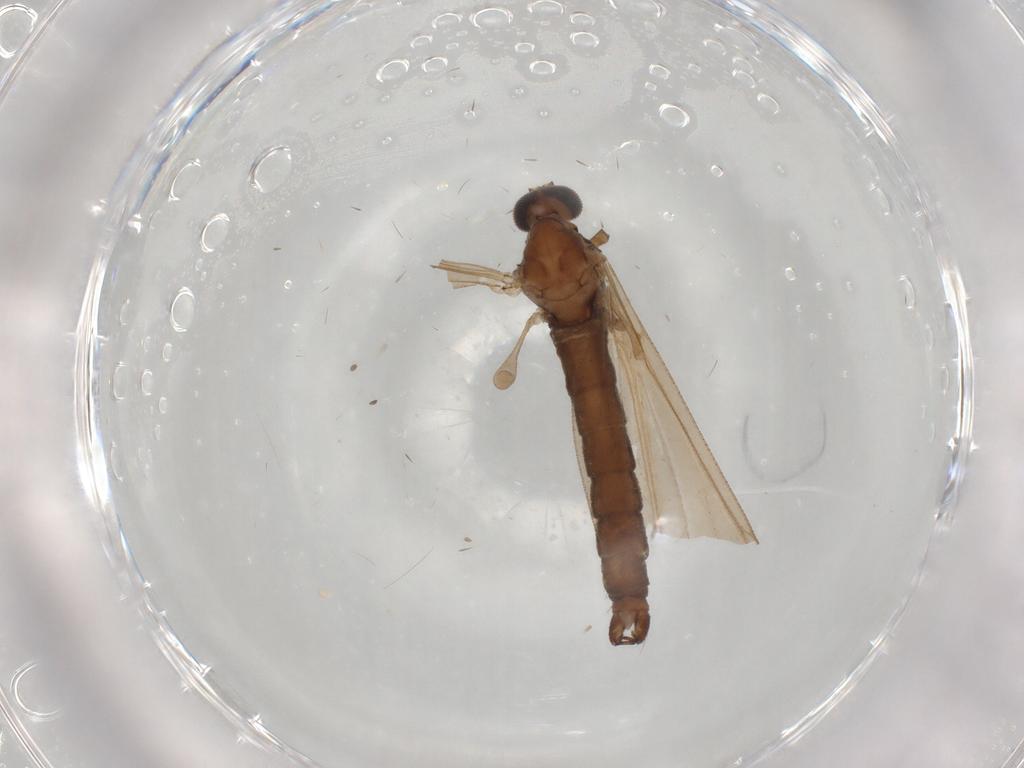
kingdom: Animalia
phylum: Arthropoda
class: Insecta
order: Diptera
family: Sphaeroceridae
